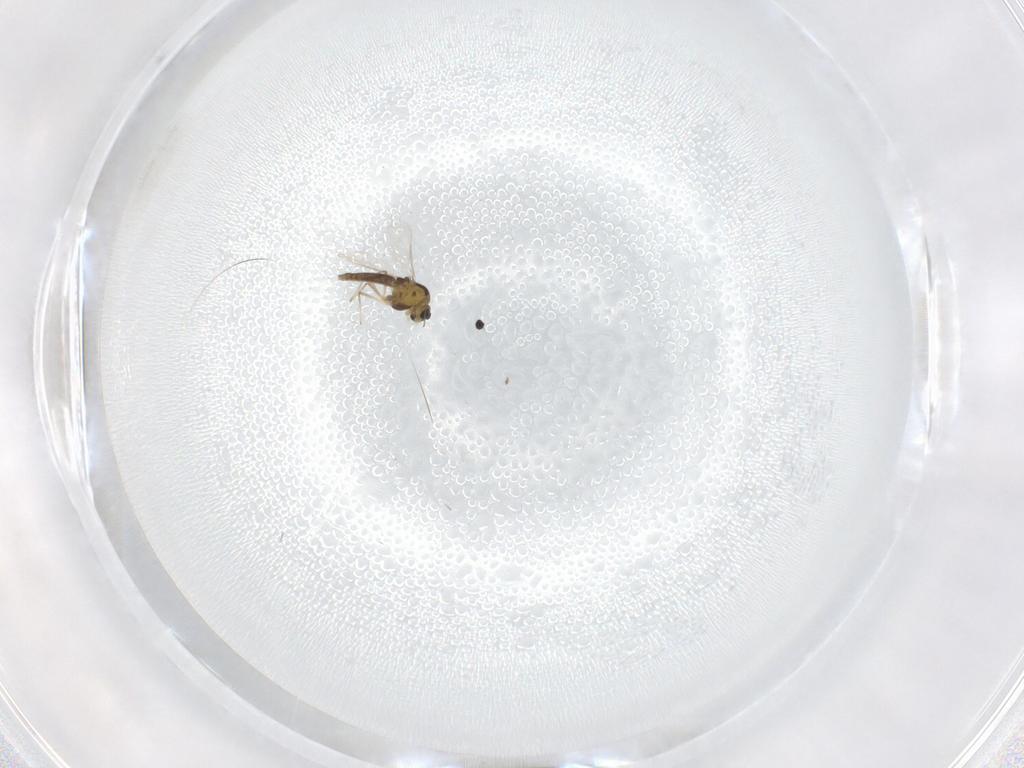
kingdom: Animalia
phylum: Arthropoda
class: Insecta
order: Diptera
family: Chironomidae
